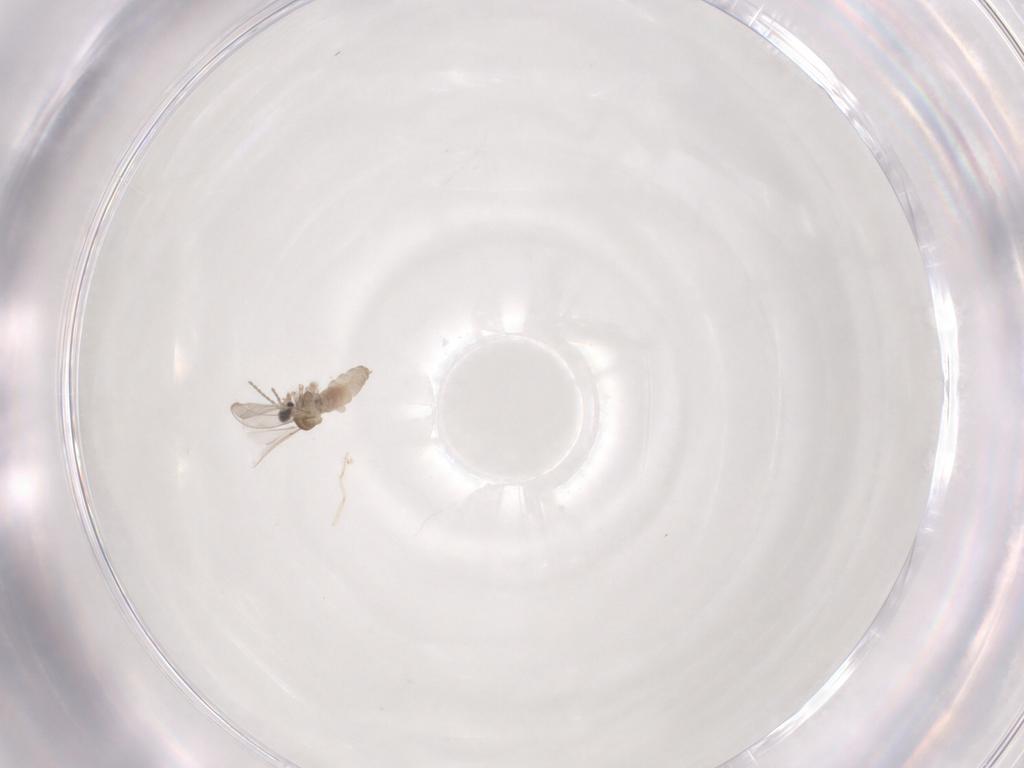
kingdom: Animalia
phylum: Arthropoda
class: Insecta
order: Diptera
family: Cecidomyiidae
